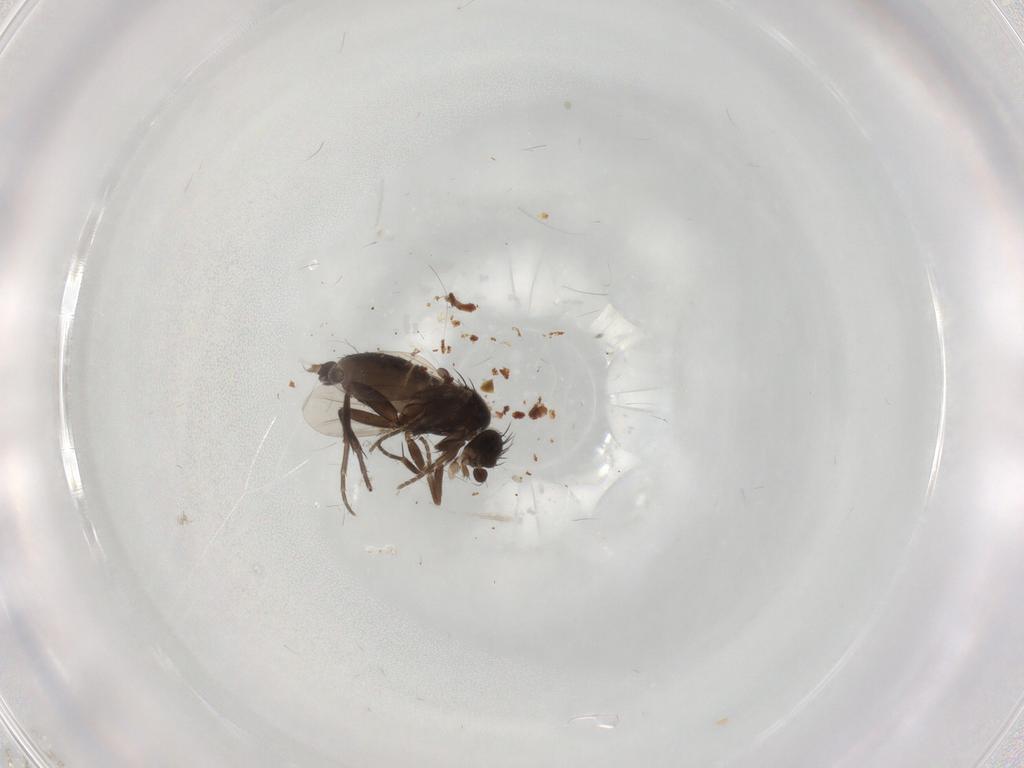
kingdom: Animalia
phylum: Arthropoda
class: Insecta
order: Diptera
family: Cecidomyiidae
